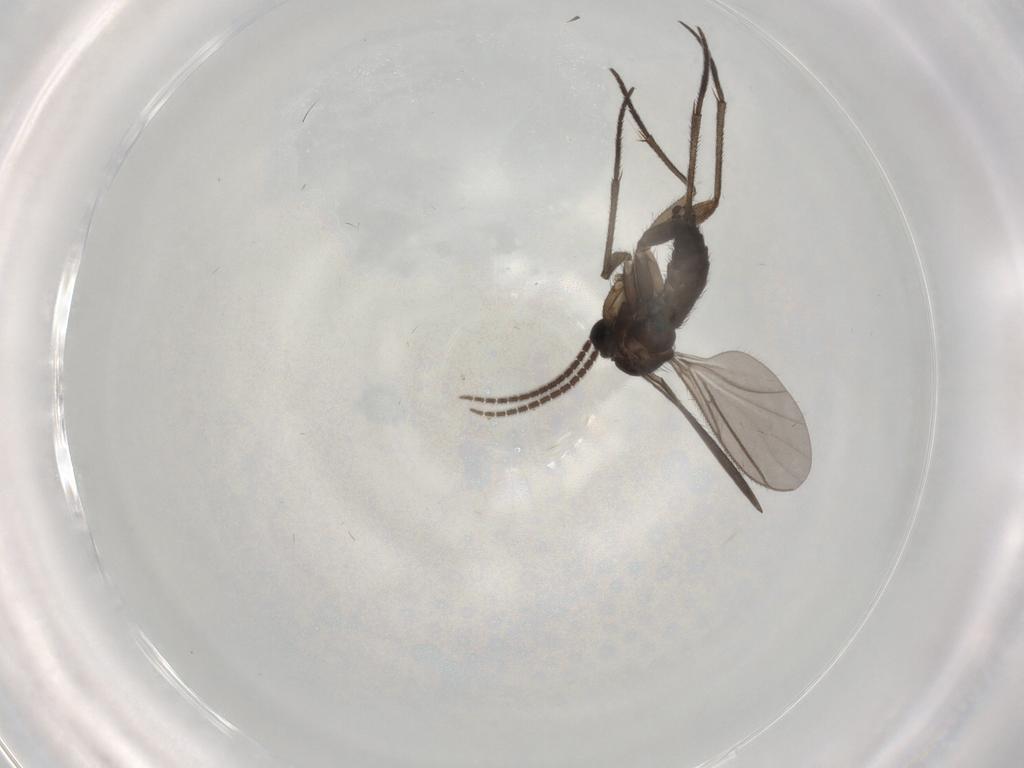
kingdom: Animalia
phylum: Arthropoda
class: Insecta
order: Diptera
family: Sciaridae
